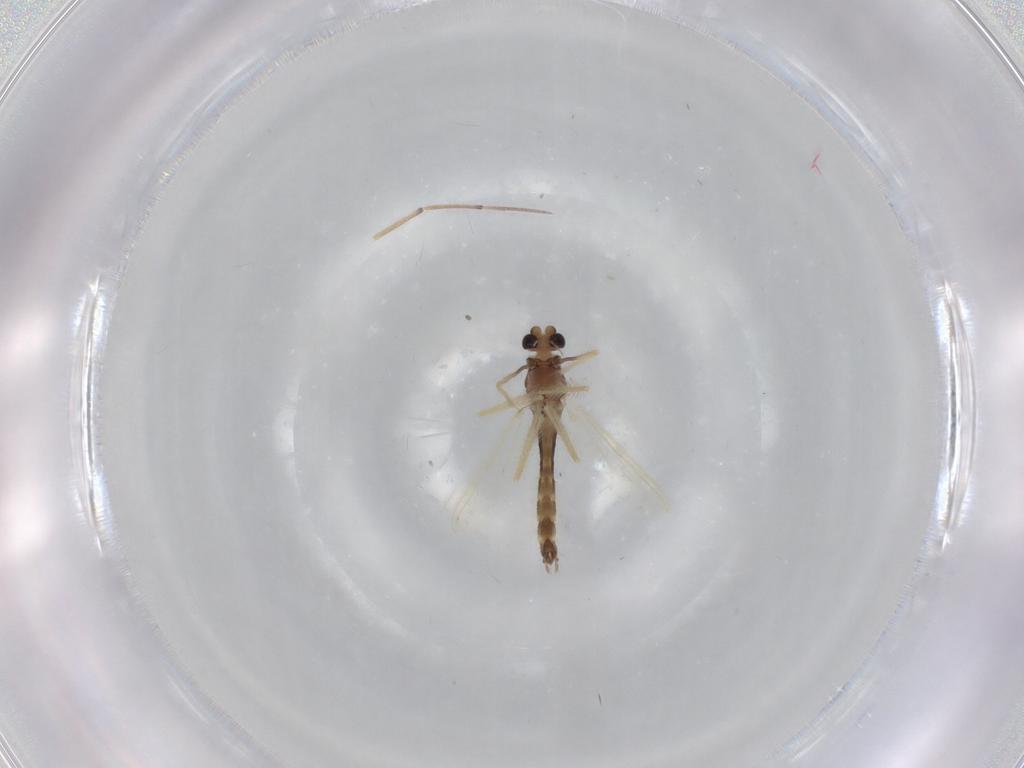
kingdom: Animalia
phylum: Arthropoda
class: Insecta
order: Diptera
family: Chironomidae
